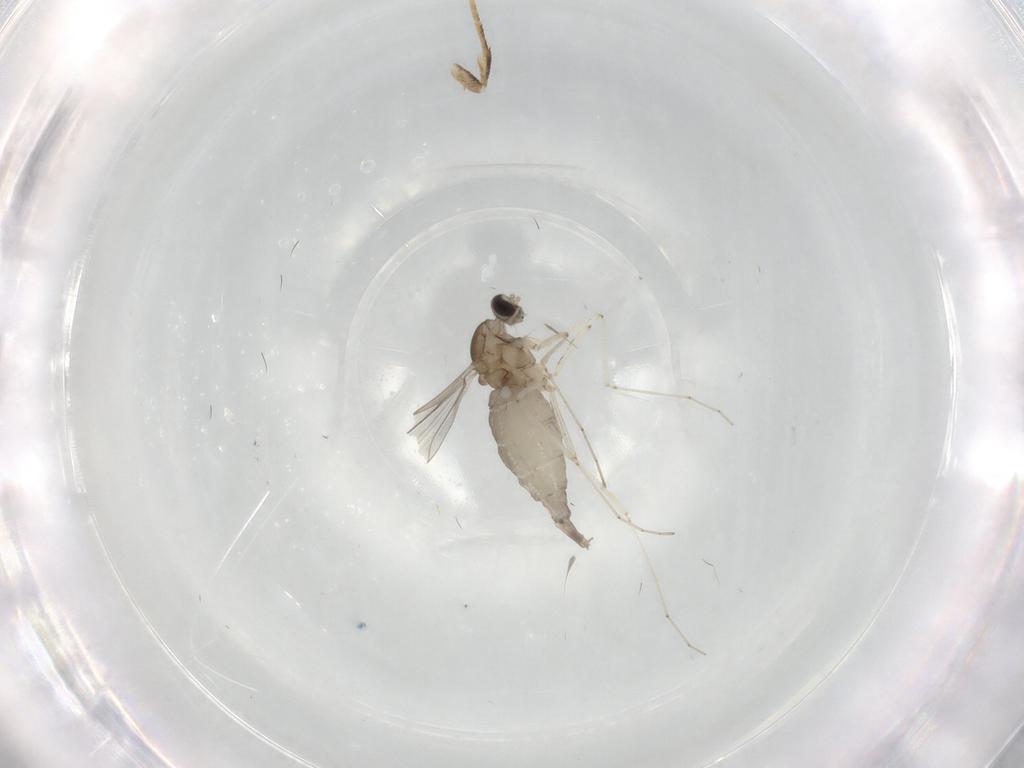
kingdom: Animalia
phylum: Arthropoda
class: Insecta
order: Diptera
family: Cecidomyiidae
